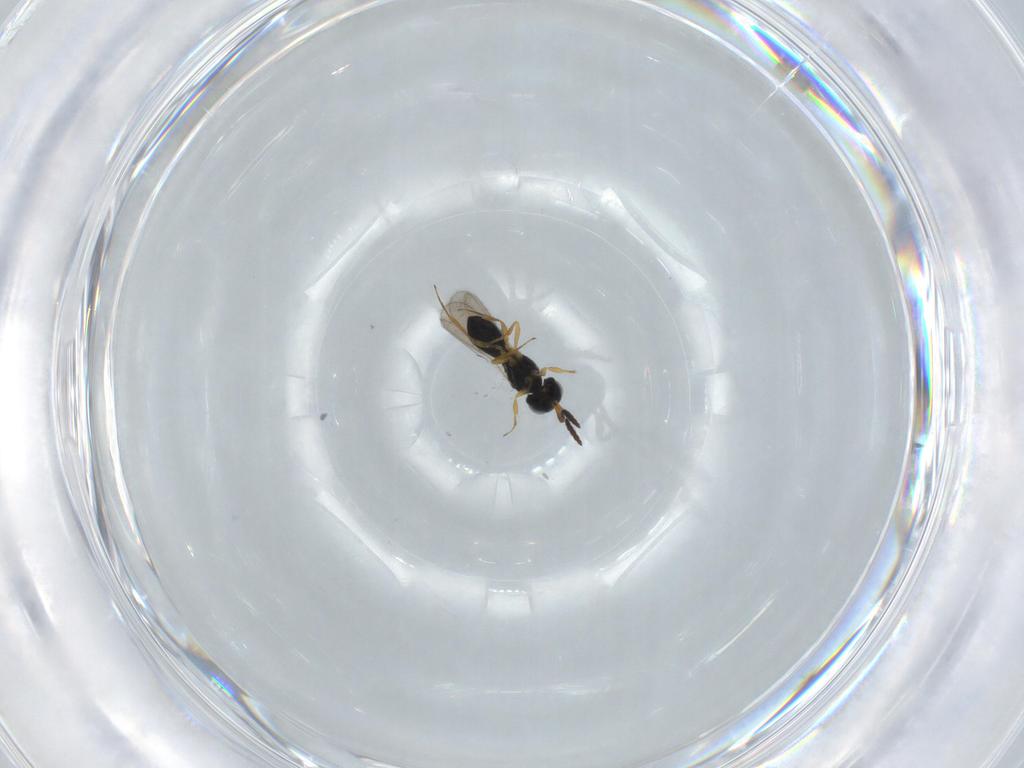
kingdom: Animalia
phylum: Arthropoda
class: Insecta
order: Hymenoptera
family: Scelionidae
